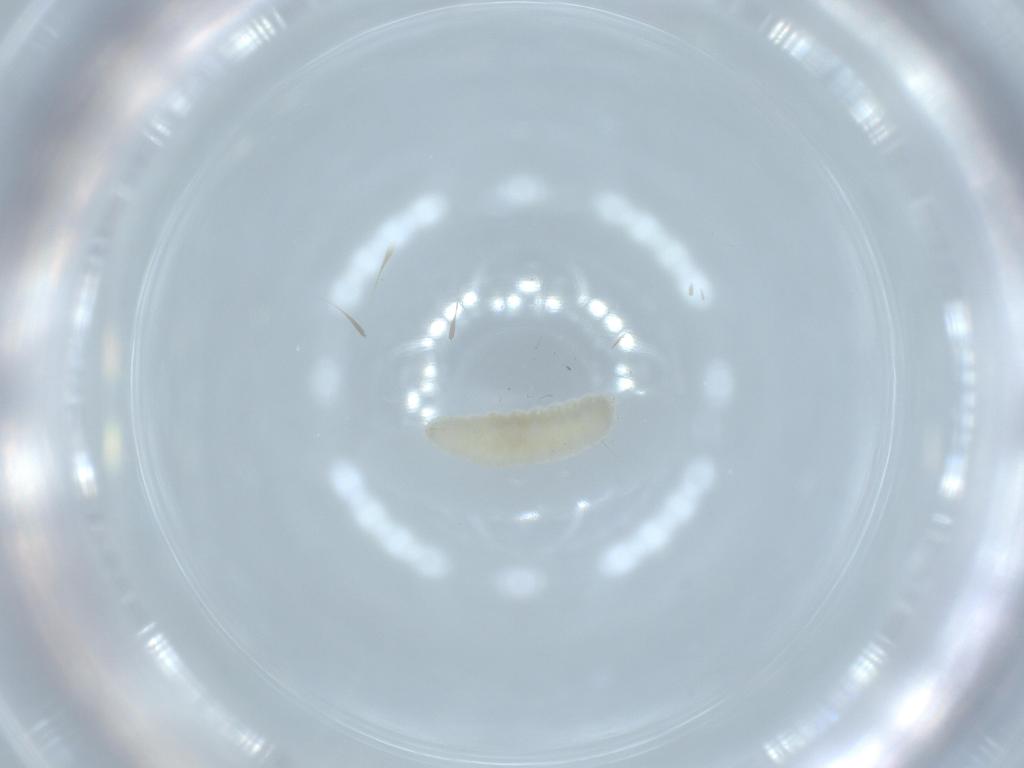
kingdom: Animalia
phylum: Arthropoda
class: Insecta
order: Diptera
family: Cecidomyiidae
